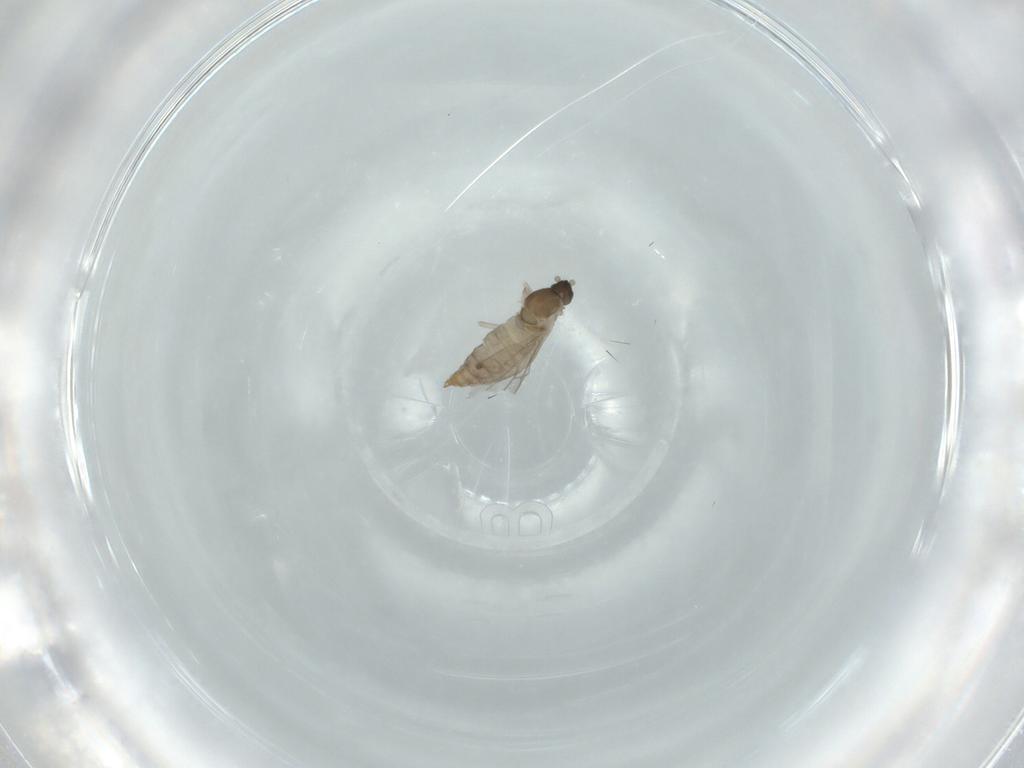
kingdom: Animalia
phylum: Arthropoda
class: Insecta
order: Diptera
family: Cecidomyiidae
